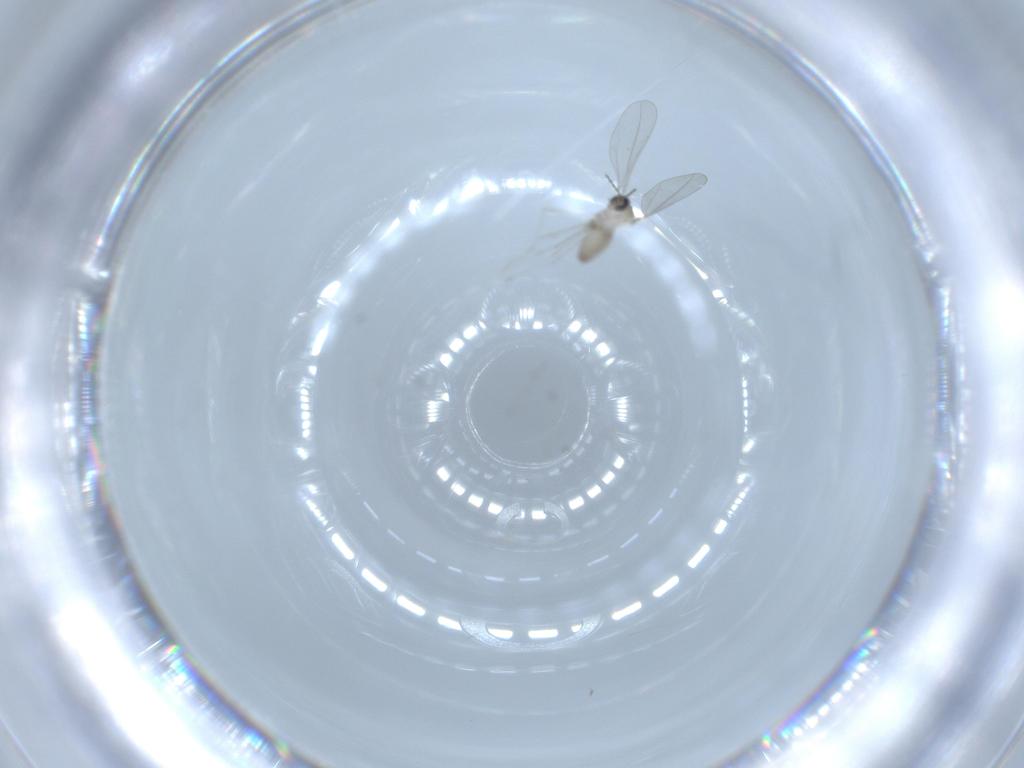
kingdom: Animalia
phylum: Arthropoda
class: Insecta
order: Diptera
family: Cecidomyiidae
